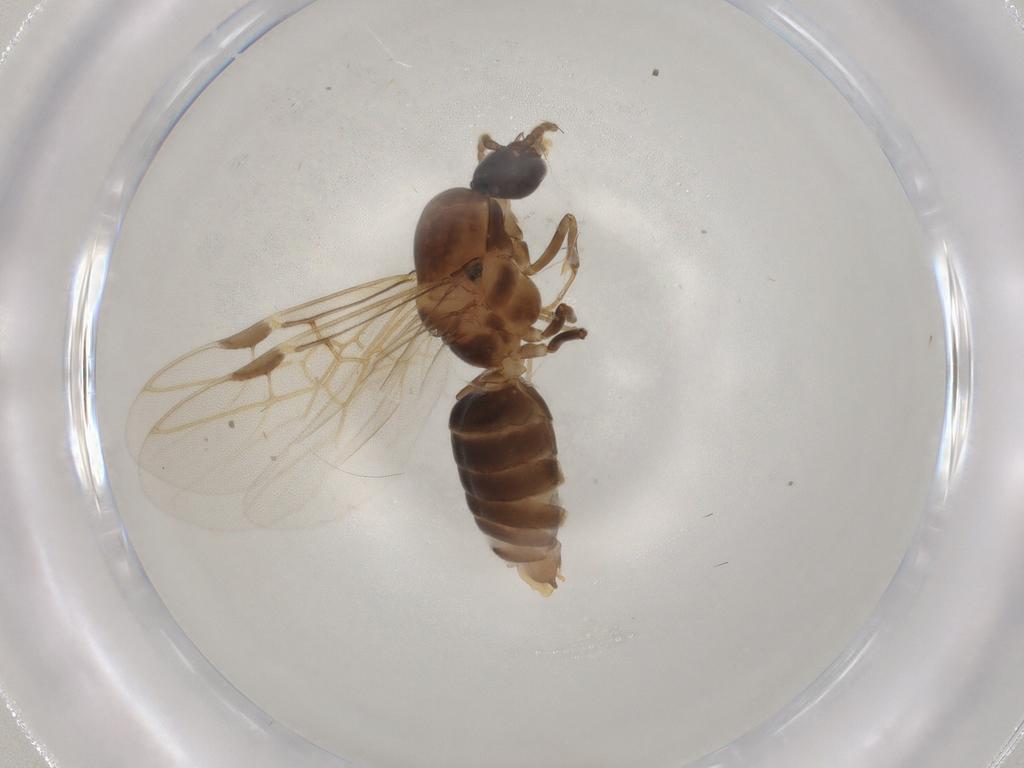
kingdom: Animalia
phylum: Arthropoda
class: Insecta
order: Hymenoptera
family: Formicidae
